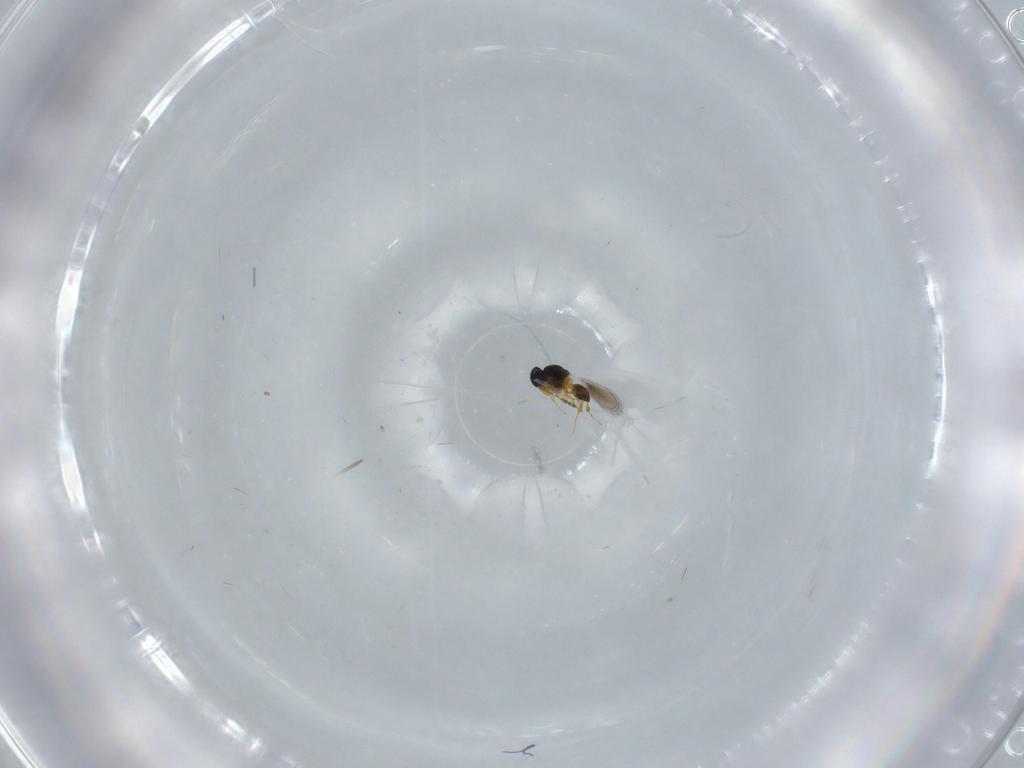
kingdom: Animalia
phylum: Arthropoda
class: Insecta
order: Hymenoptera
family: Platygastridae
